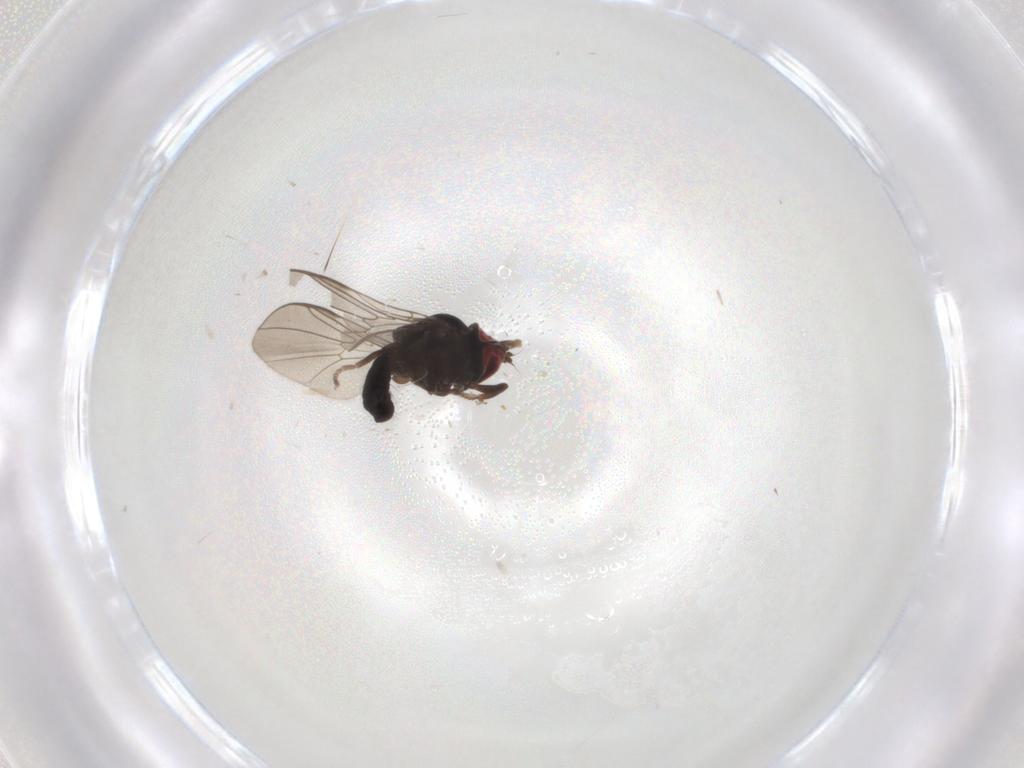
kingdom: Animalia
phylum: Arthropoda
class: Insecta
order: Diptera
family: Pipunculidae
